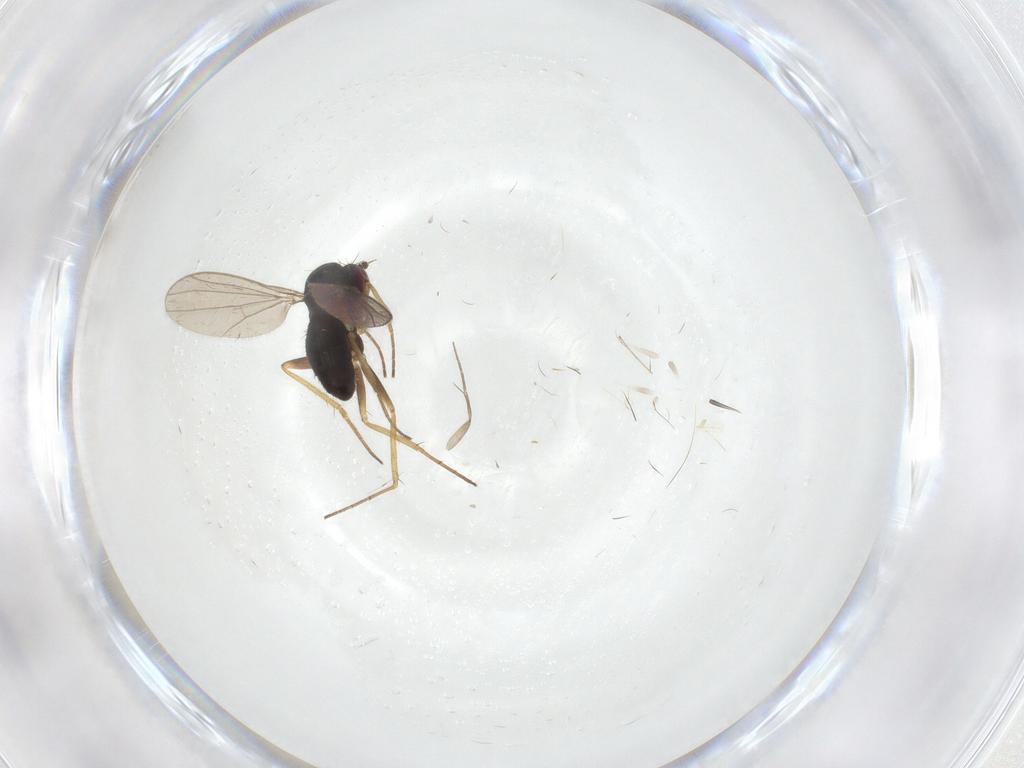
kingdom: Animalia
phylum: Arthropoda
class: Insecta
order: Diptera
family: Dolichopodidae
